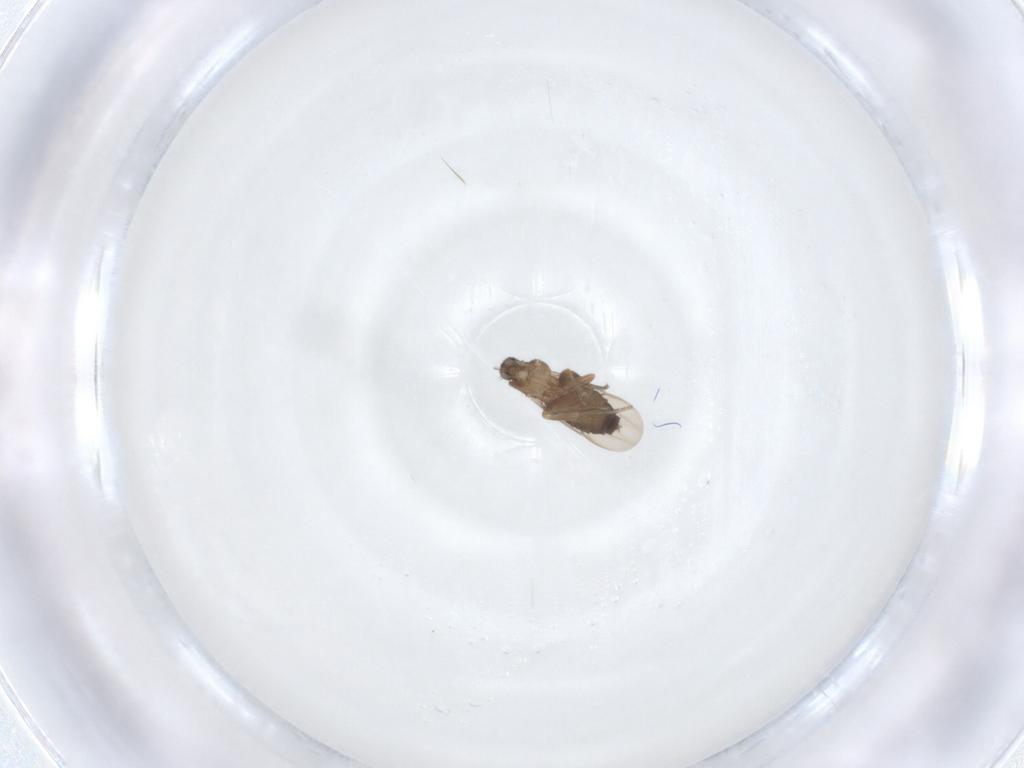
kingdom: Animalia
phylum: Arthropoda
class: Insecta
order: Diptera
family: Phoridae
